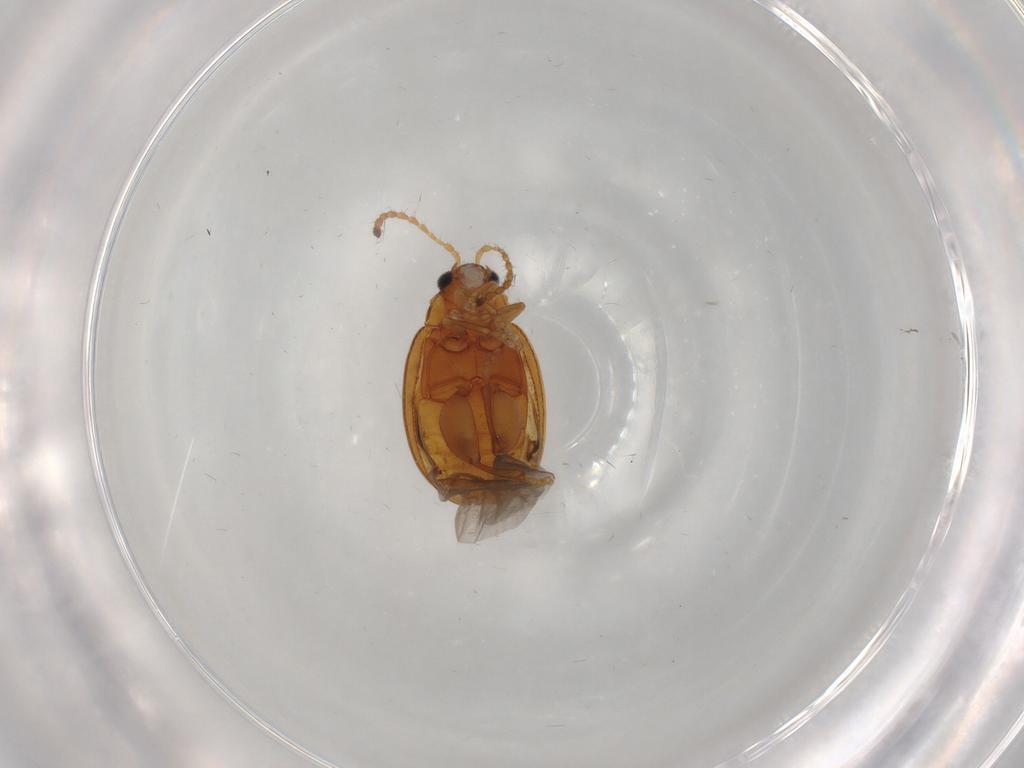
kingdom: Animalia
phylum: Arthropoda
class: Insecta
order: Coleoptera
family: Chrysomelidae
